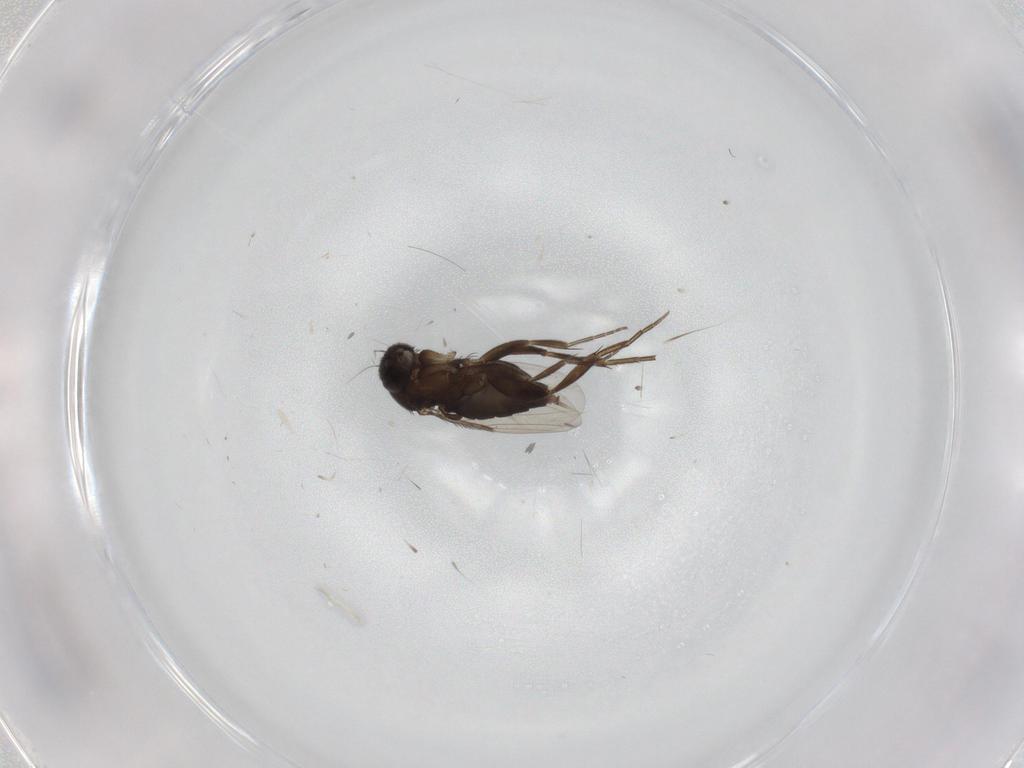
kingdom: Animalia
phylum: Arthropoda
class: Insecta
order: Diptera
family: Phoridae
